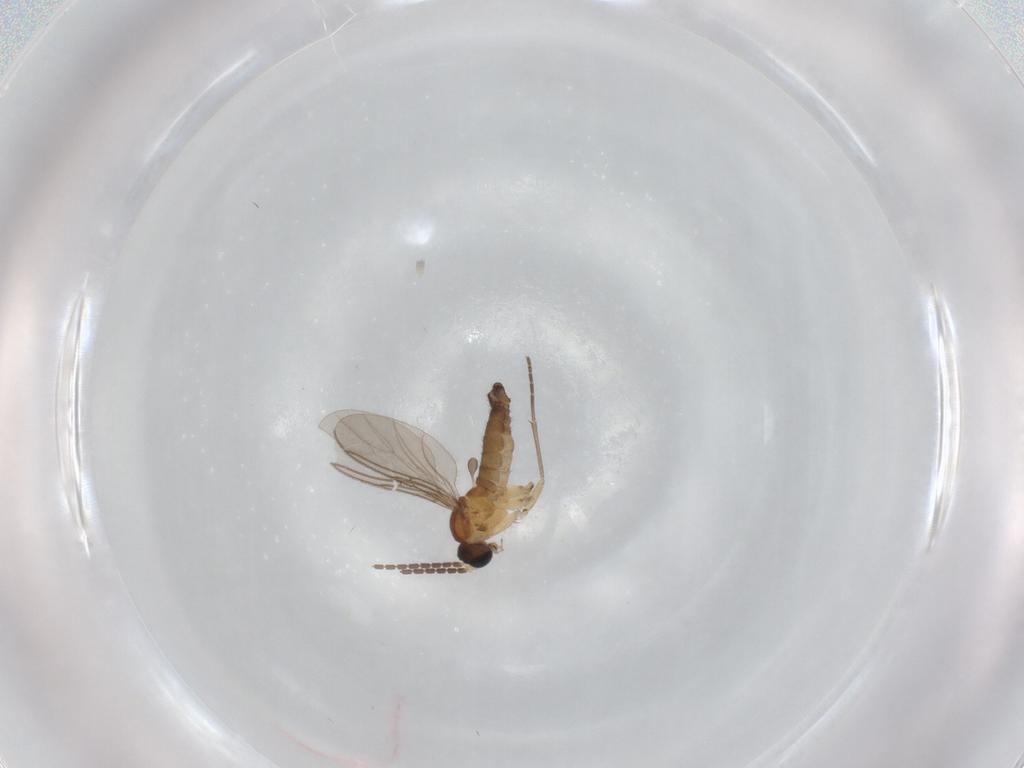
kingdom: Animalia
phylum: Arthropoda
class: Insecta
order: Diptera
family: Sciaridae
